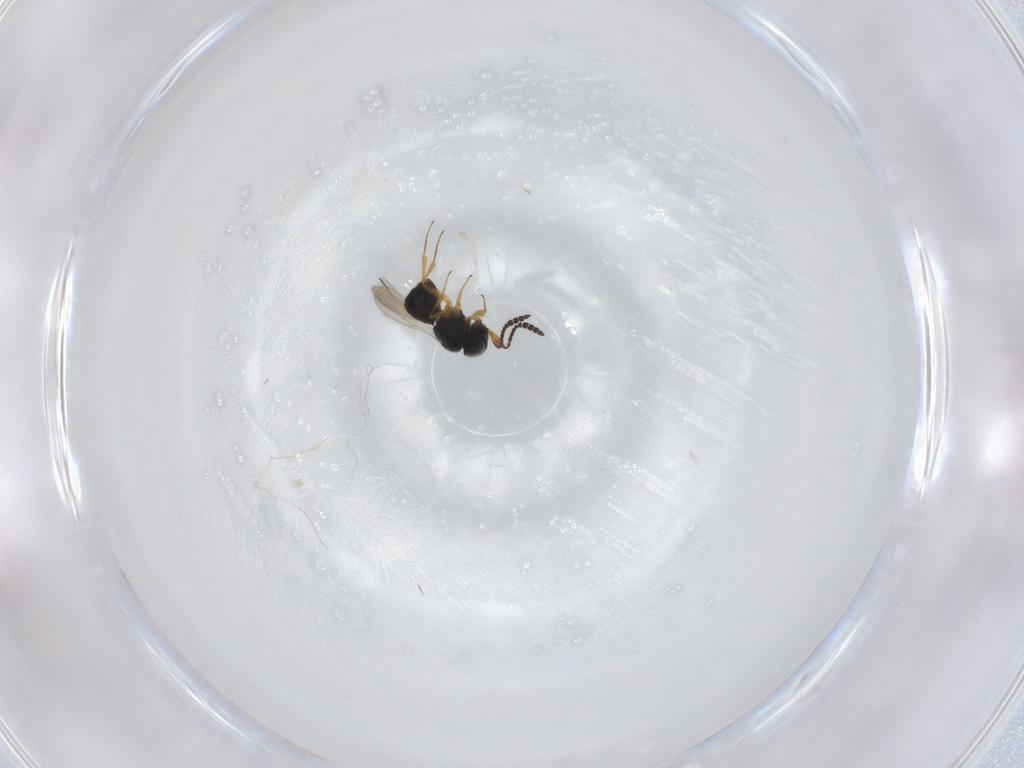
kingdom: Animalia
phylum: Arthropoda
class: Insecta
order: Hymenoptera
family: Scelionidae
